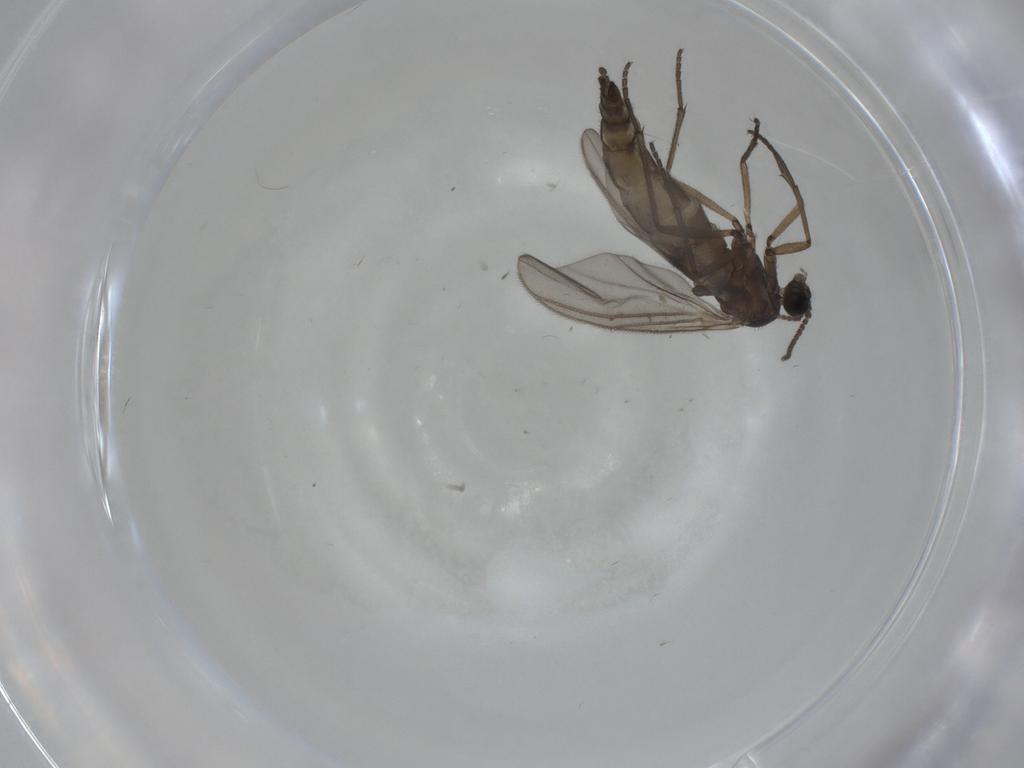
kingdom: Animalia
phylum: Arthropoda
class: Insecta
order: Diptera
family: Sciaridae
